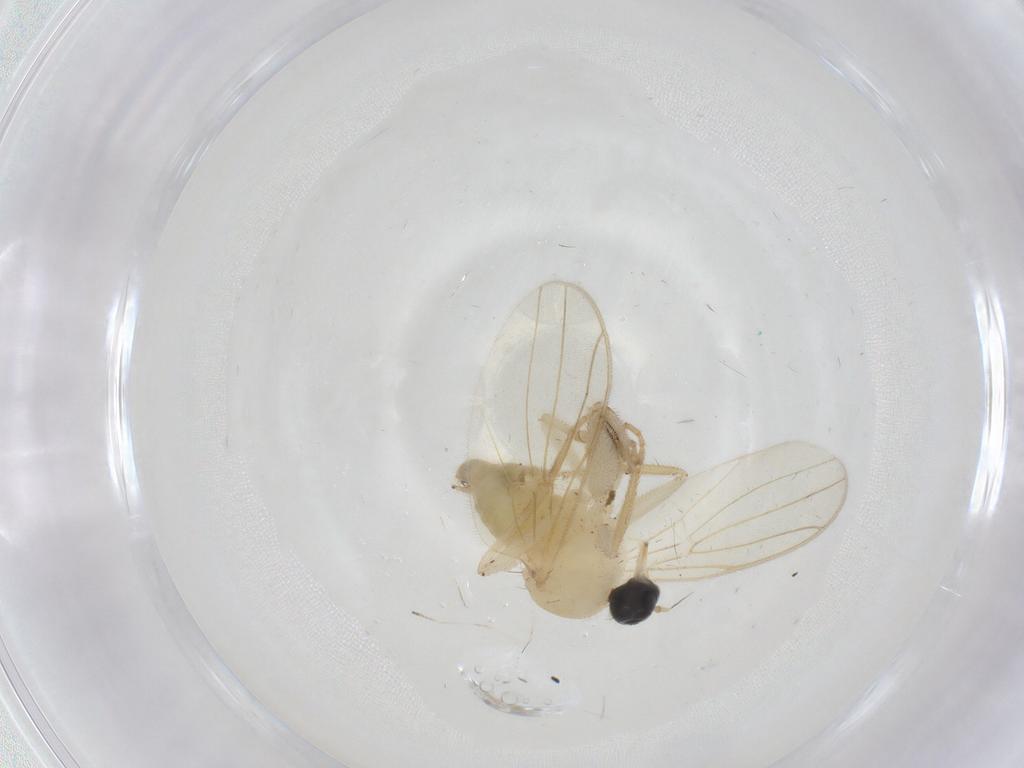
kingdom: Animalia
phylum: Arthropoda
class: Insecta
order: Diptera
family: Hybotidae
